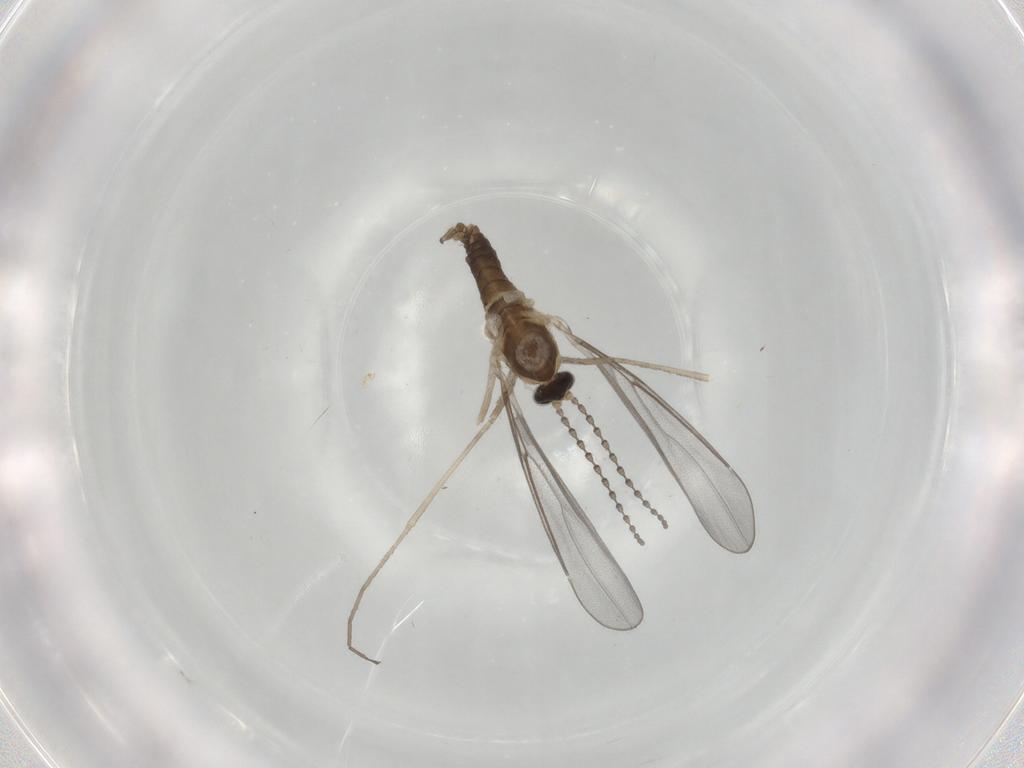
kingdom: Animalia
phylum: Arthropoda
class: Insecta
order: Diptera
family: Cecidomyiidae
